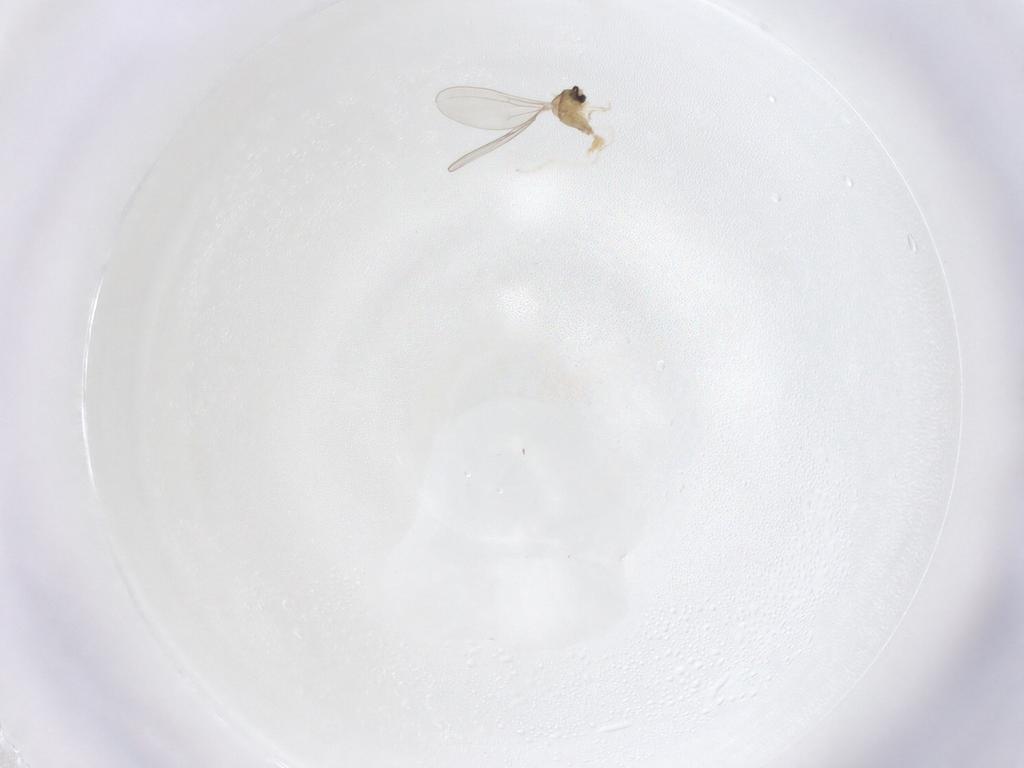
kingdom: Animalia
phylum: Arthropoda
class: Insecta
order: Diptera
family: Cecidomyiidae
